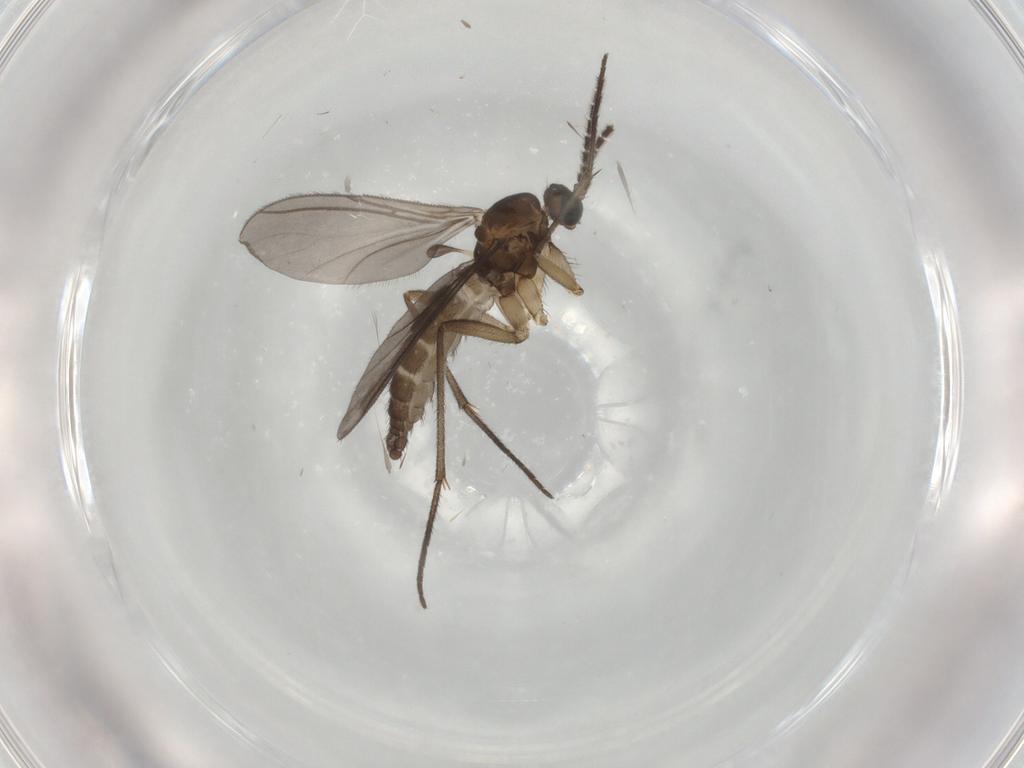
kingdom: Animalia
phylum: Arthropoda
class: Insecta
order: Diptera
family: Sciaridae
